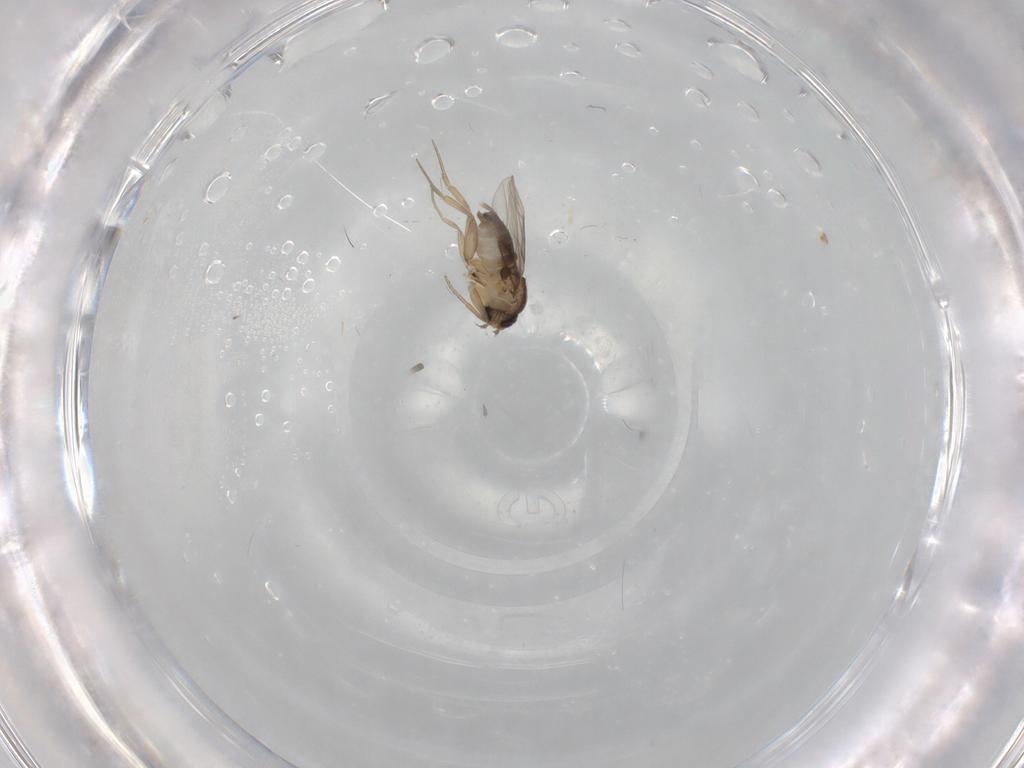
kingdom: Animalia
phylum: Arthropoda
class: Insecta
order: Diptera
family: Phoridae
